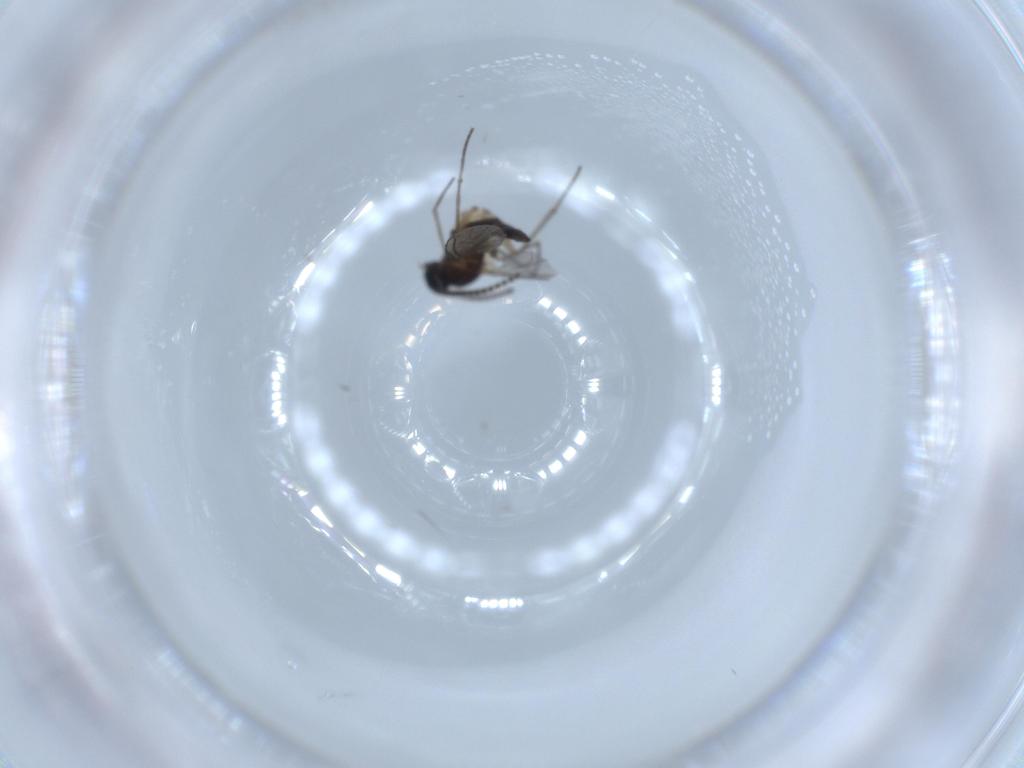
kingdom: Animalia
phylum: Arthropoda
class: Insecta
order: Diptera
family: Sciaridae
